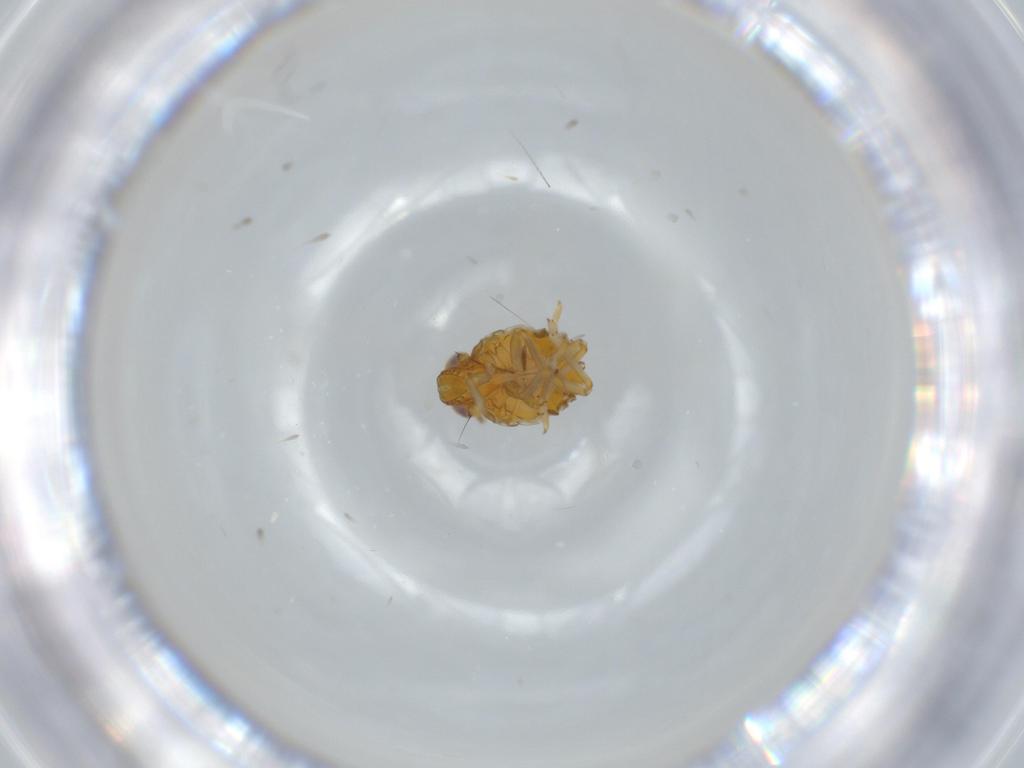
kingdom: Animalia
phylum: Arthropoda
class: Insecta
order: Hemiptera
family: Issidae
